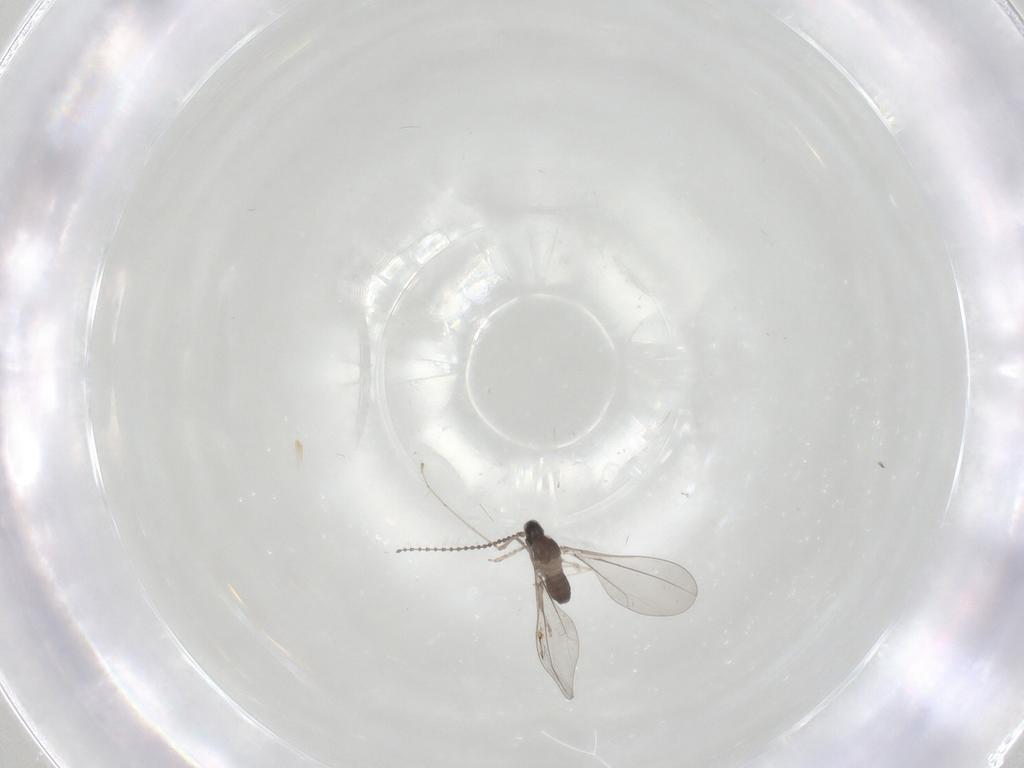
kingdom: Animalia
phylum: Arthropoda
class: Insecta
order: Diptera
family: Cecidomyiidae
